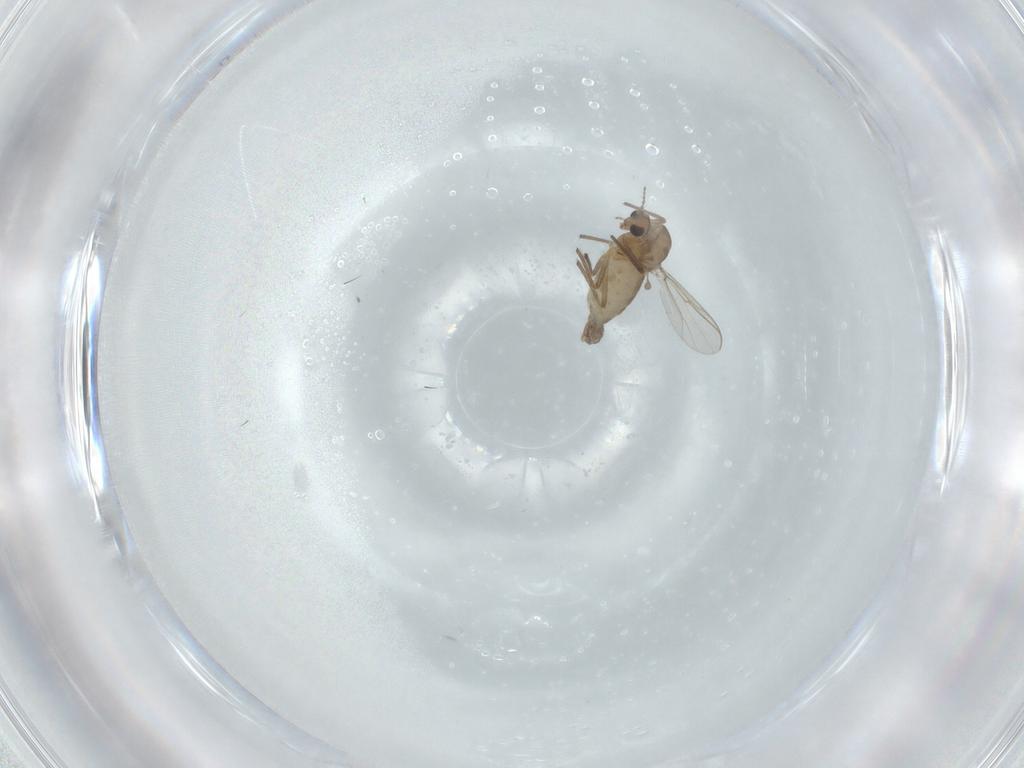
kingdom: Animalia
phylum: Arthropoda
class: Insecta
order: Diptera
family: Chironomidae
